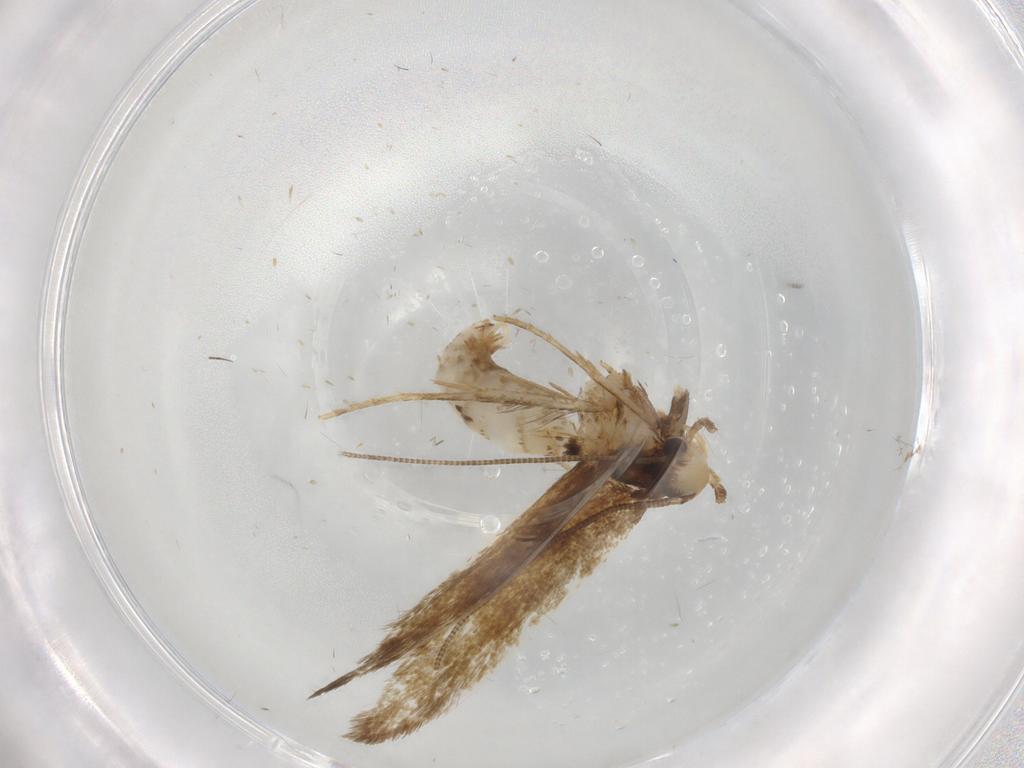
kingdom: Animalia
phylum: Arthropoda
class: Insecta
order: Lepidoptera
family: Tineidae
